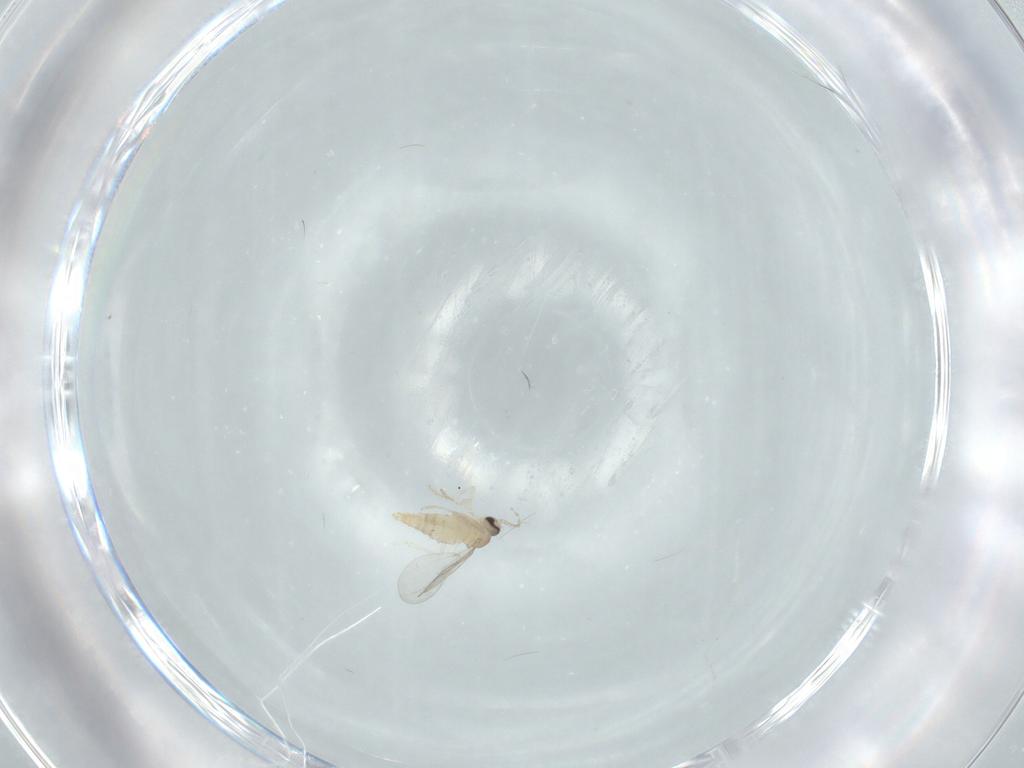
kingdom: Animalia
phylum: Arthropoda
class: Insecta
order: Diptera
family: Cecidomyiidae
